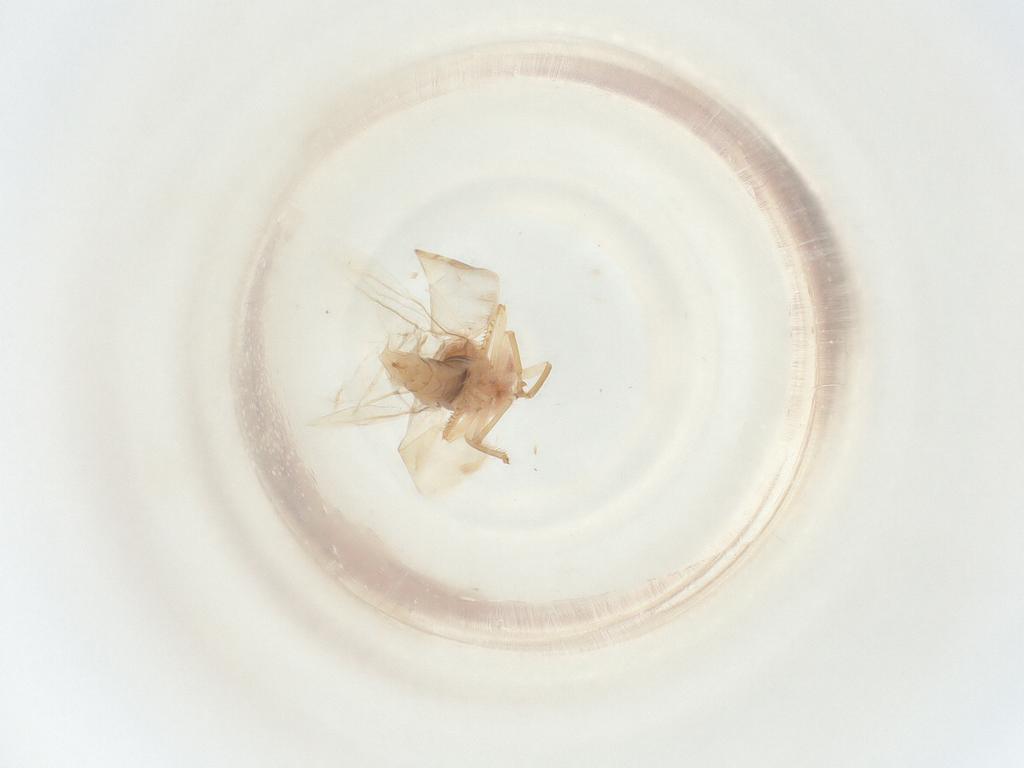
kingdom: Animalia
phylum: Arthropoda
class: Insecta
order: Hemiptera
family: Cicadellidae
